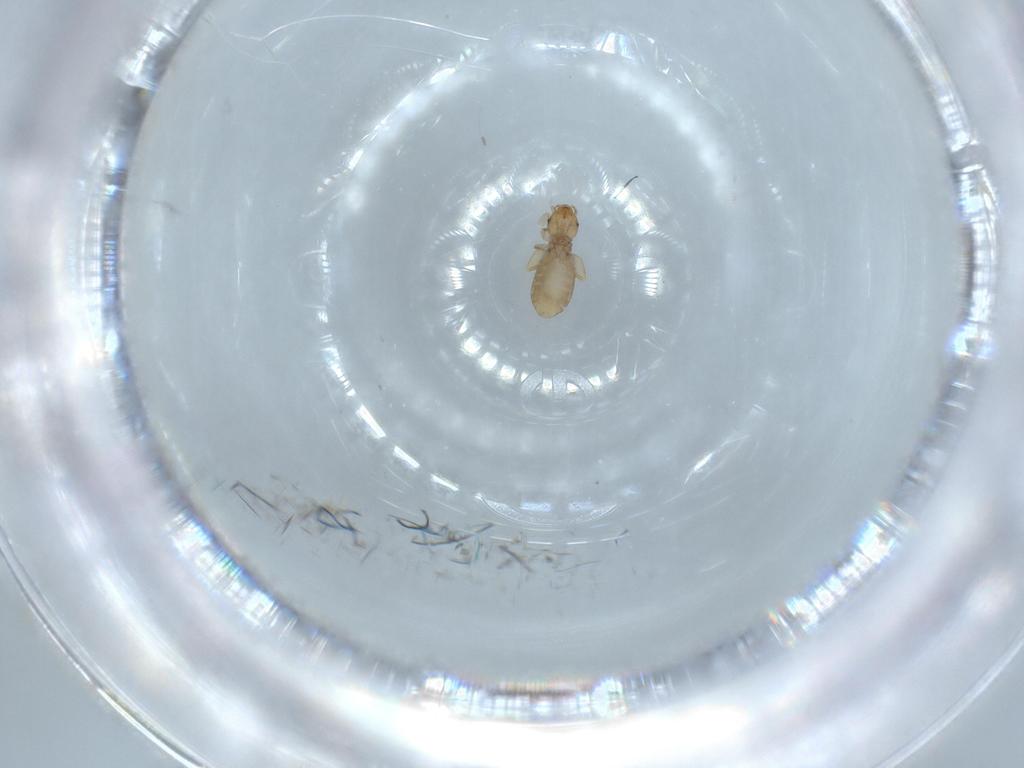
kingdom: Animalia
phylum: Arthropoda
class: Insecta
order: Psocodea
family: Liposcelididae
